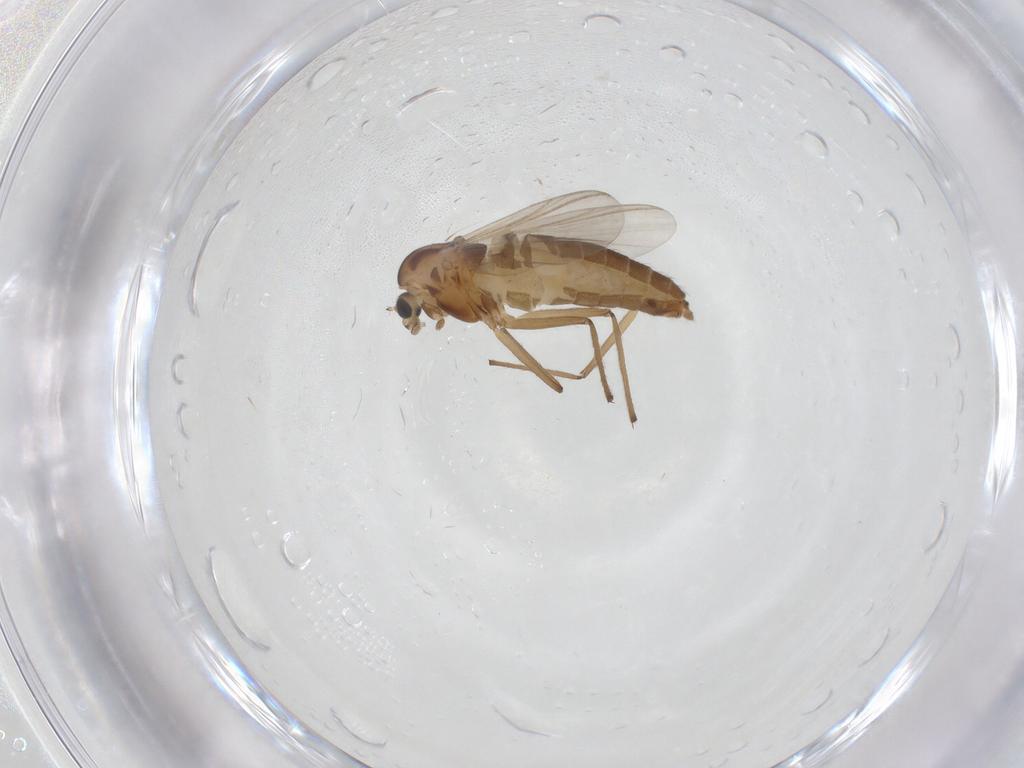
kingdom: Animalia
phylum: Arthropoda
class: Insecta
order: Diptera
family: Chironomidae
